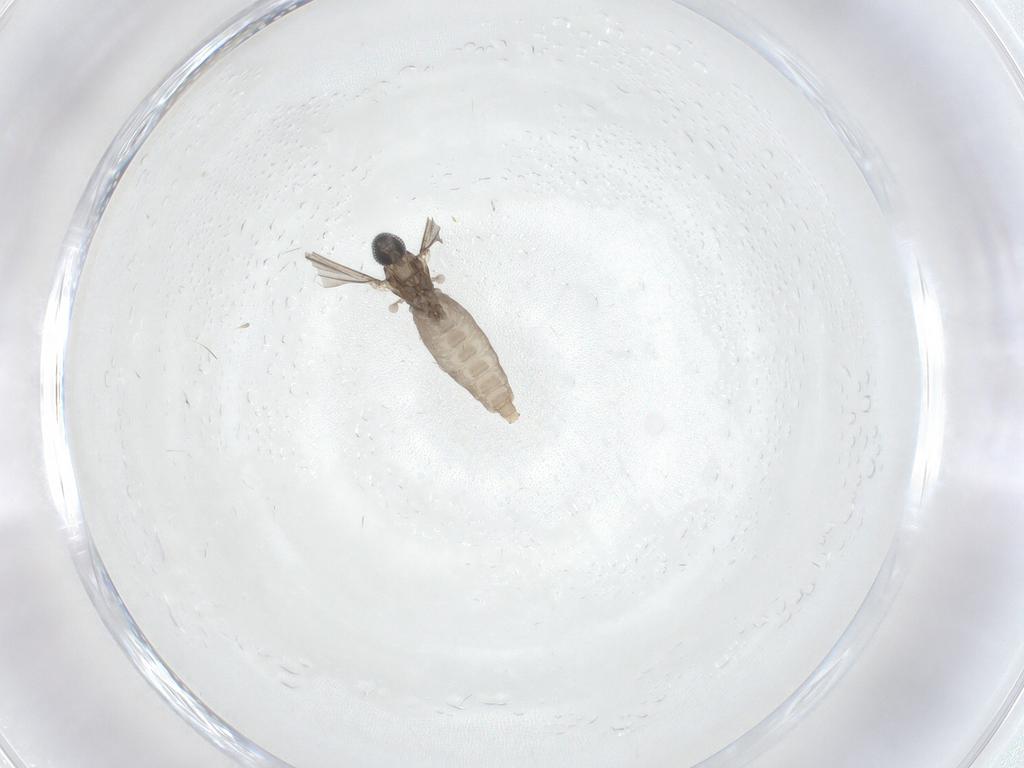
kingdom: Animalia
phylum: Arthropoda
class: Insecta
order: Diptera
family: Cecidomyiidae
